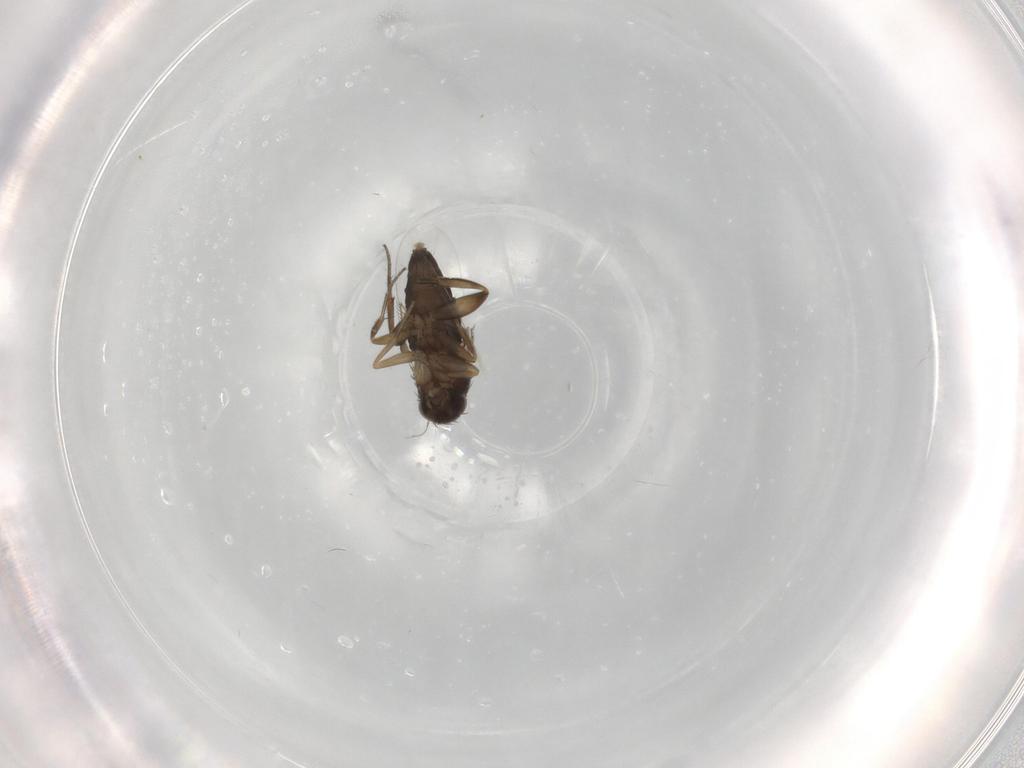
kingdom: Animalia
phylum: Arthropoda
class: Insecta
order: Diptera
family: Phoridae
